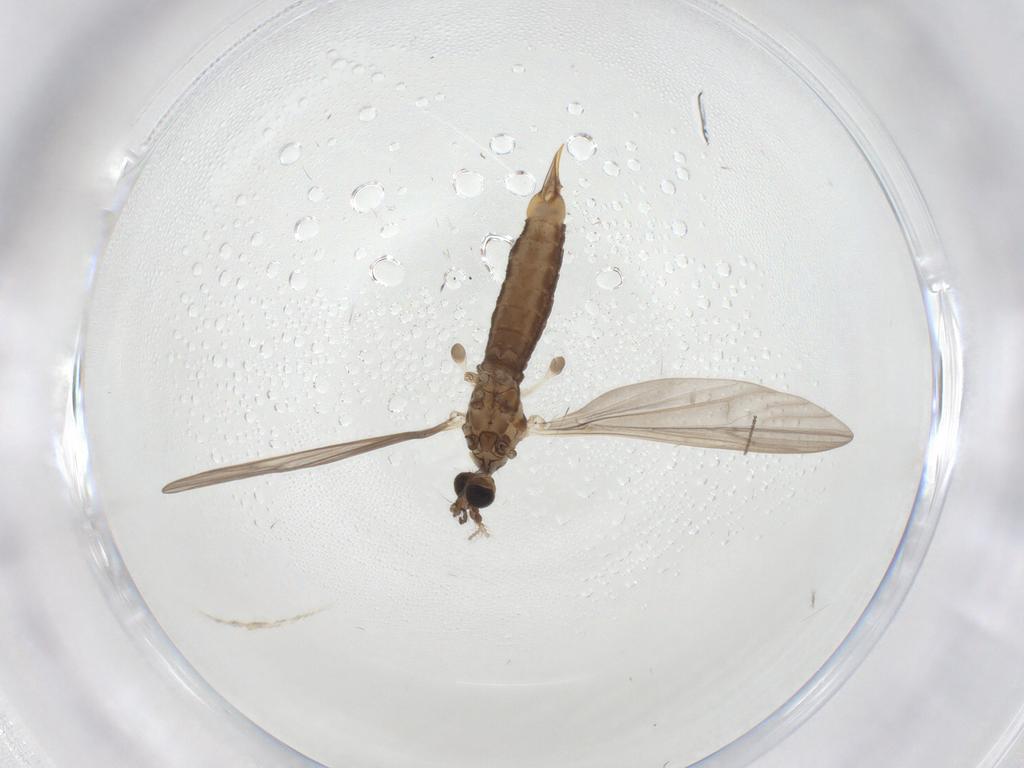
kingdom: Animalia
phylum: Arthropoda
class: Insecta
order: Diptera
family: Limoniidae
